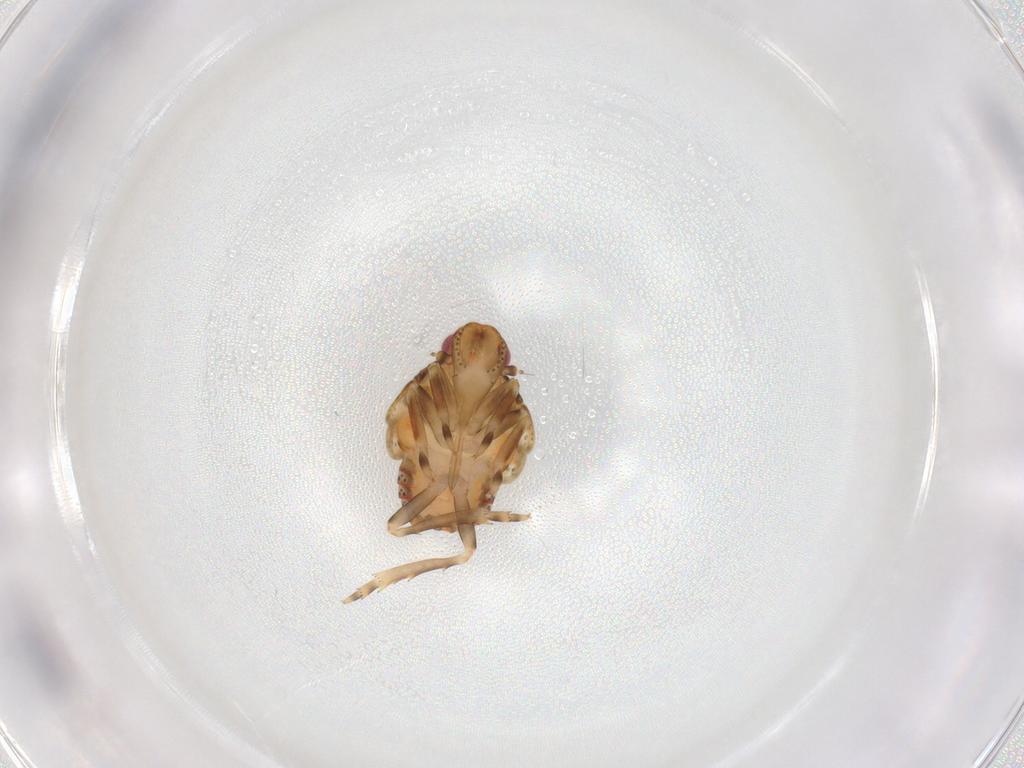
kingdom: Animalia
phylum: Arthropoda
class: Insecta
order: Hemiptera
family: Flatidae
